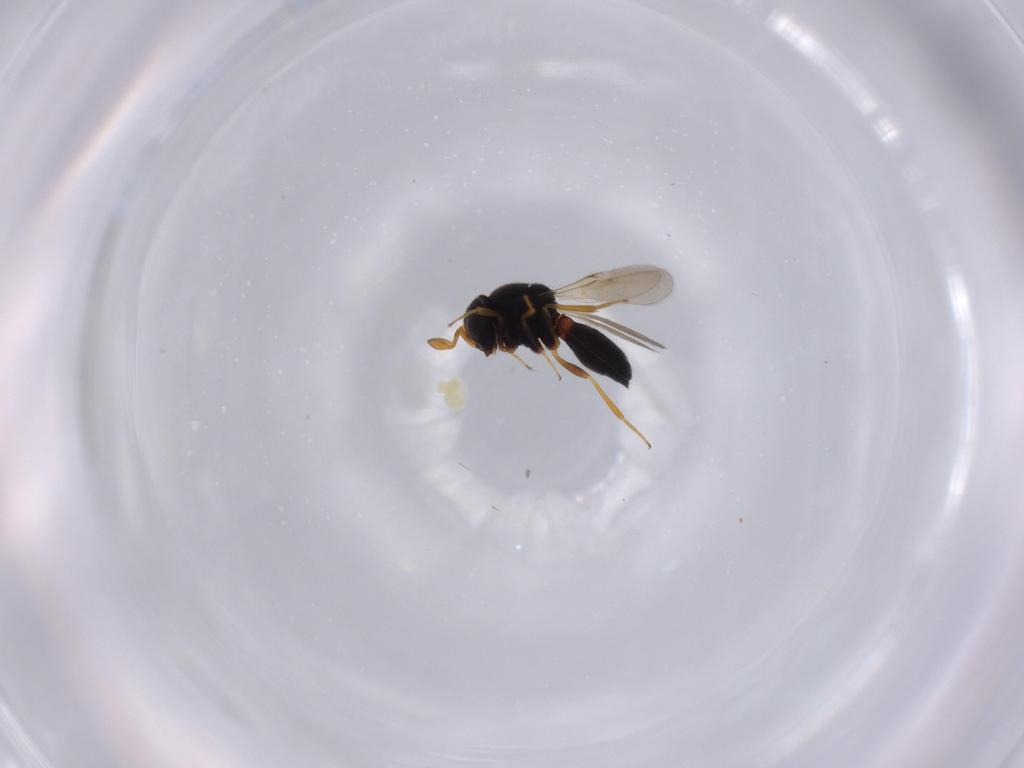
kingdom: Animalia
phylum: Arthropoda
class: Insecta
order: Hymenoptera
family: Scelionidae
